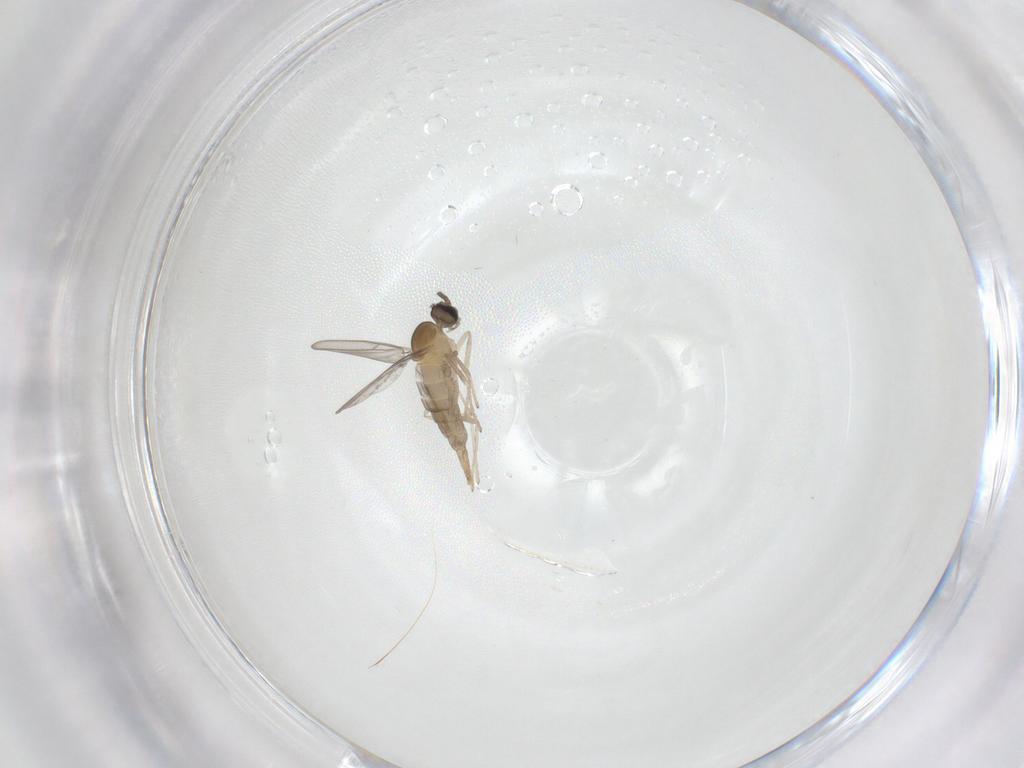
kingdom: Animalia
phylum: Arthropoda
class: Insecta
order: Diptera
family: Cecidomyiidae
